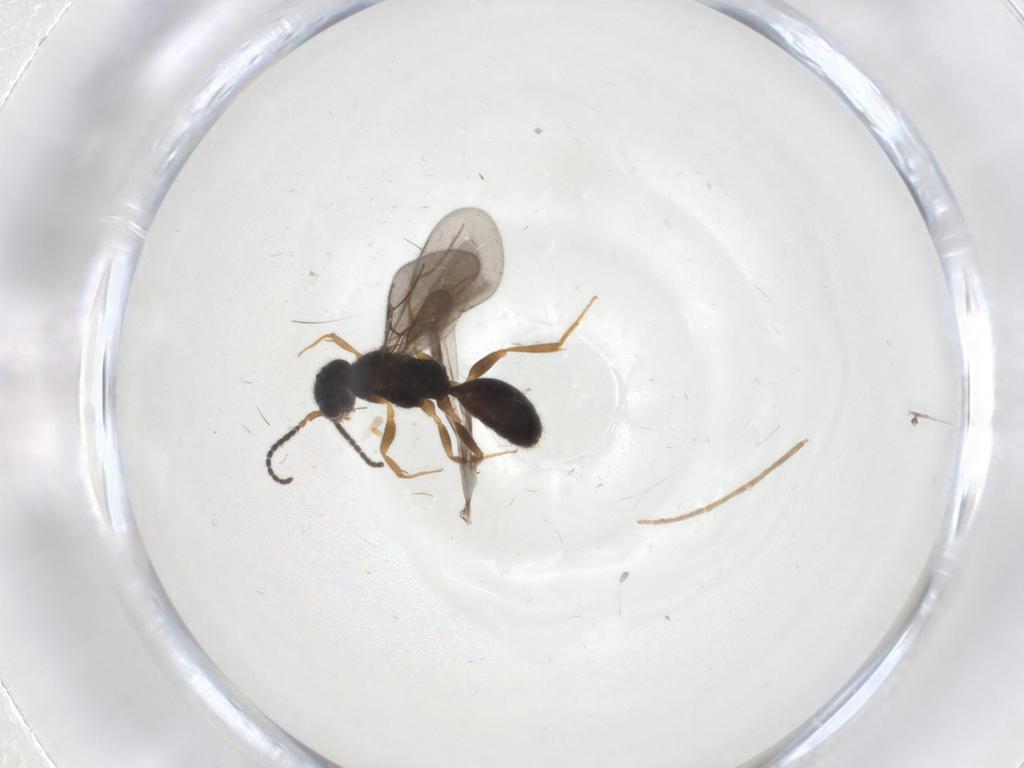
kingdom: Animalia
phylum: Arthropoda
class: Insecta
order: Hymenoptera
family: Bethylidae
